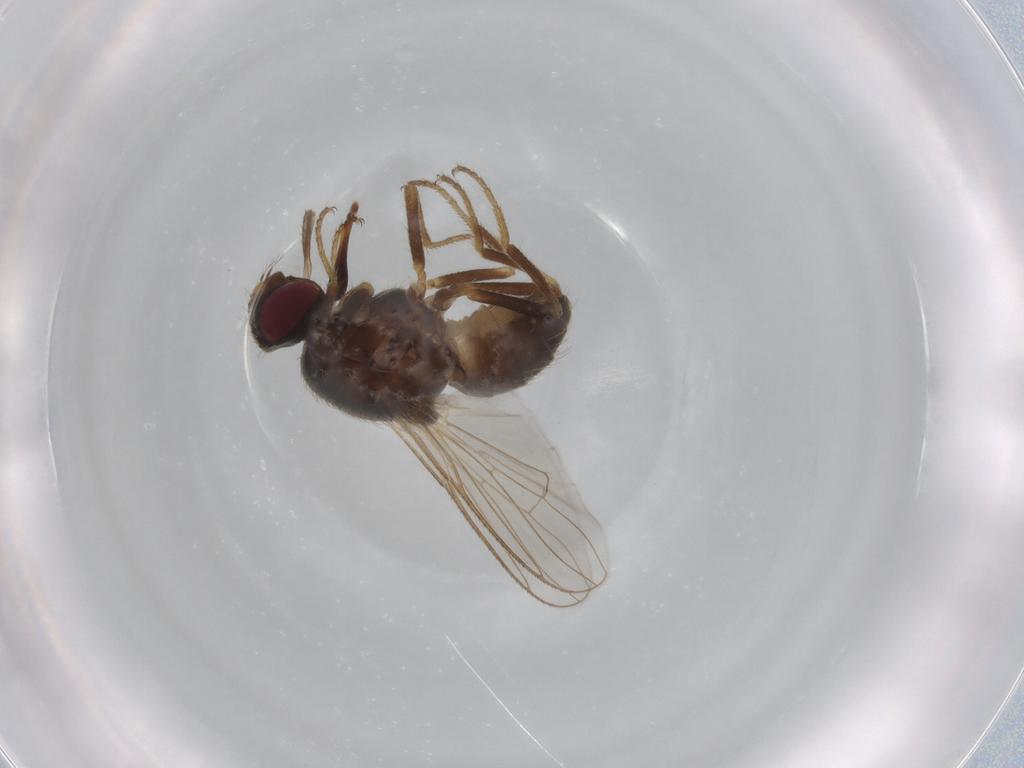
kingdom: Animalia
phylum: Arthropoda
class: Insecta
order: Diptera
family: Muscidae
